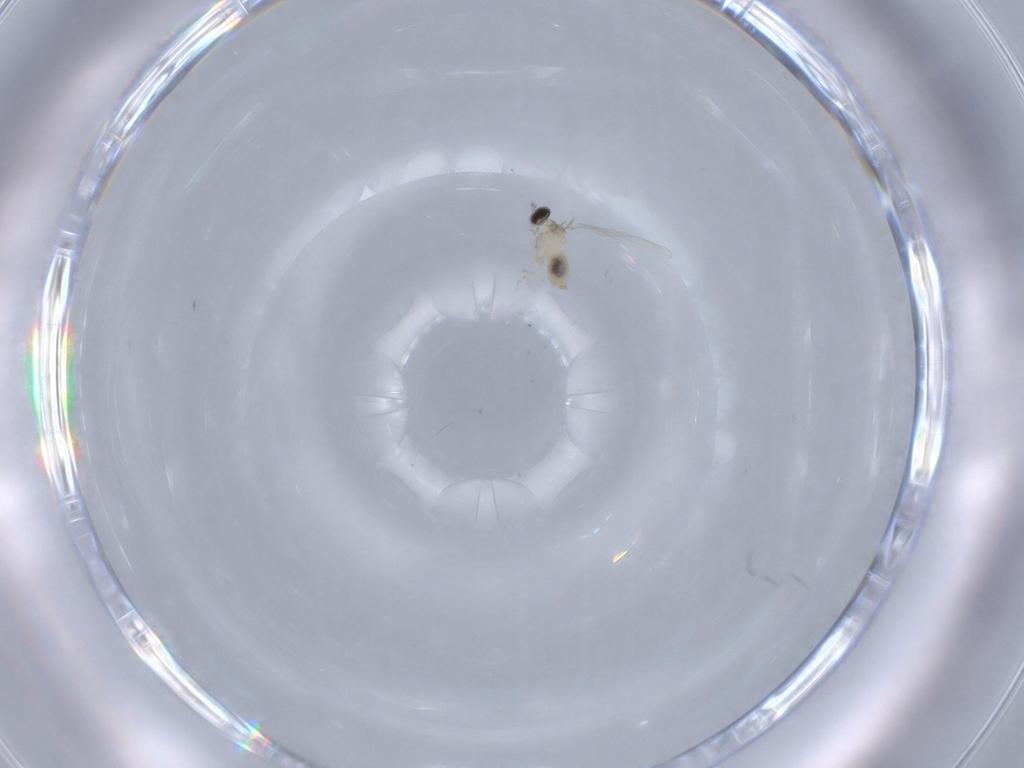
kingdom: Animalia
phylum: Arthropoda
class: Insecta
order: Diptera
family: Cecidomyiidae
